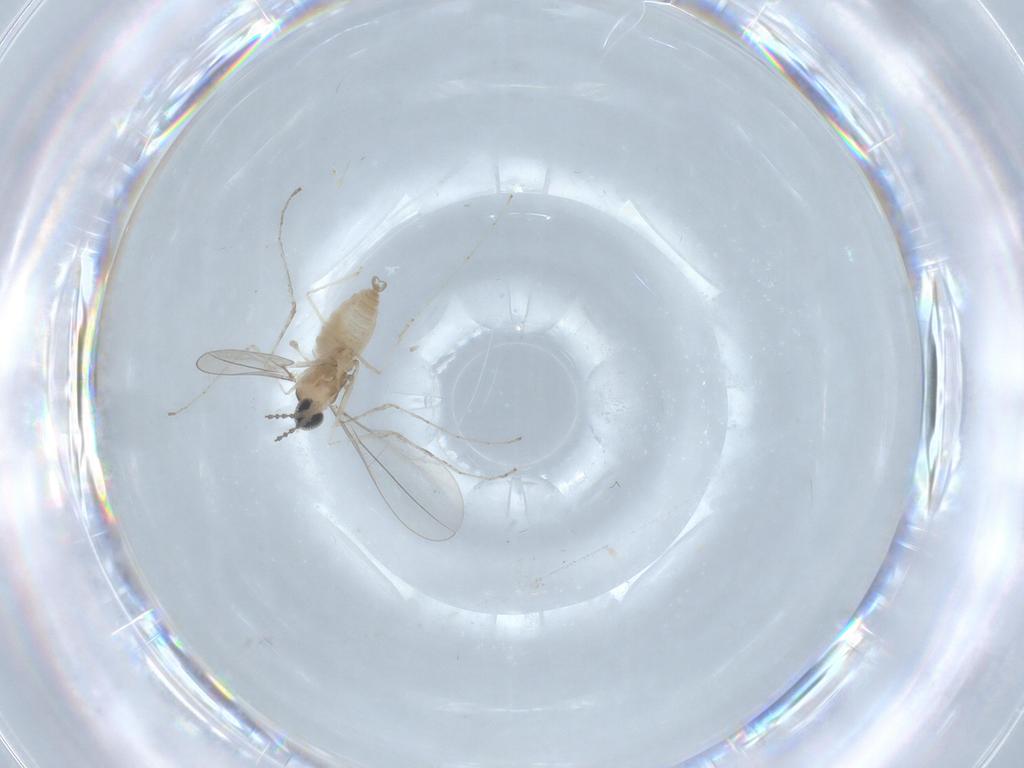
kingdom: Animalia
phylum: Arthropoda
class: Insecta
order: Diptera
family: Cecidomyiidae
